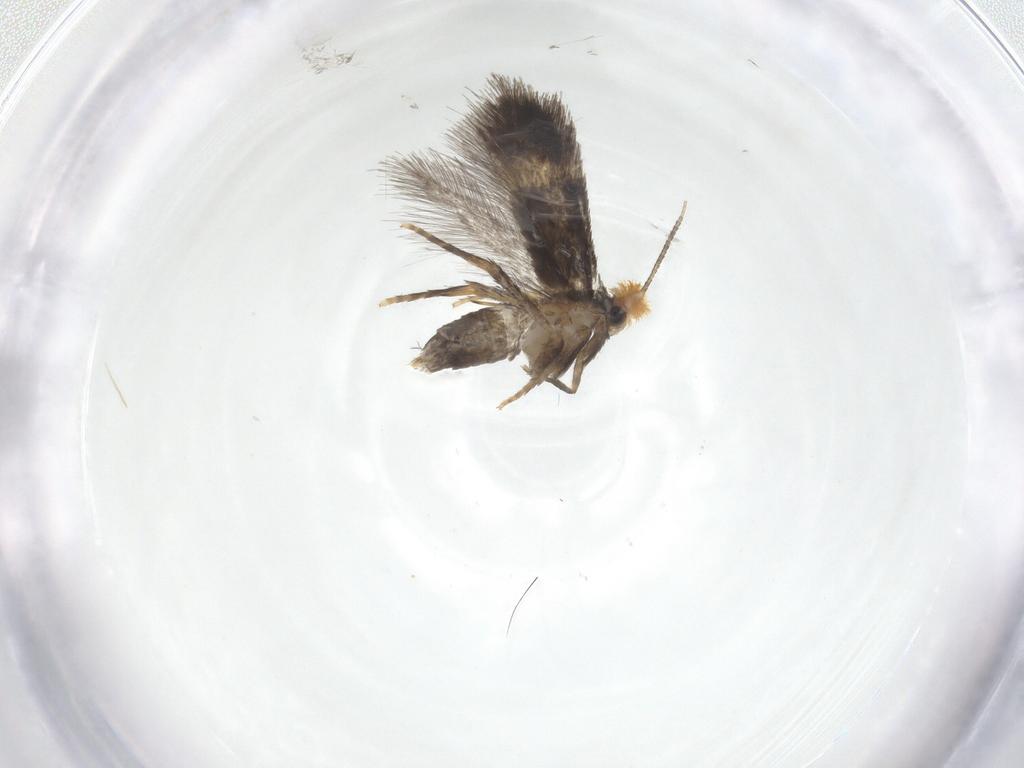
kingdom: Animalia
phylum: Arthropoda
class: Insecta
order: Lepidoptera
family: Nepticulidae
